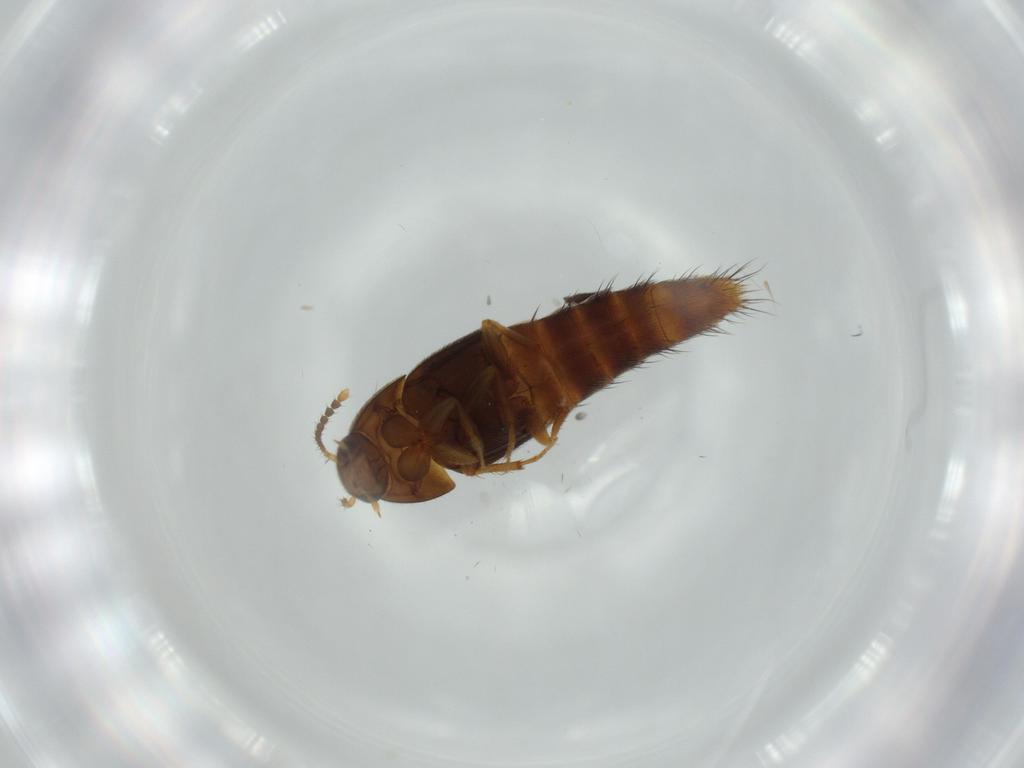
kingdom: Animalia
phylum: Arthropoda
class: Insecta
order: Coleoptera
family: Staphylinidae
